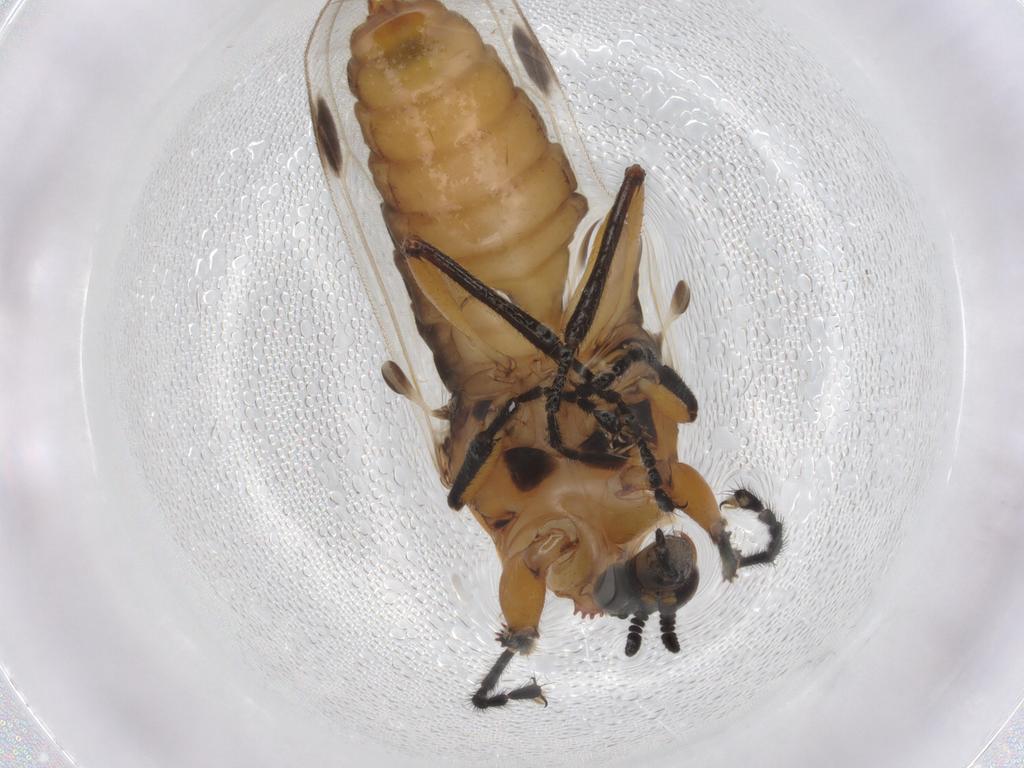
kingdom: Animalia
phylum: Arthropoda
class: Insecta
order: Diptera
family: Bibionidae
